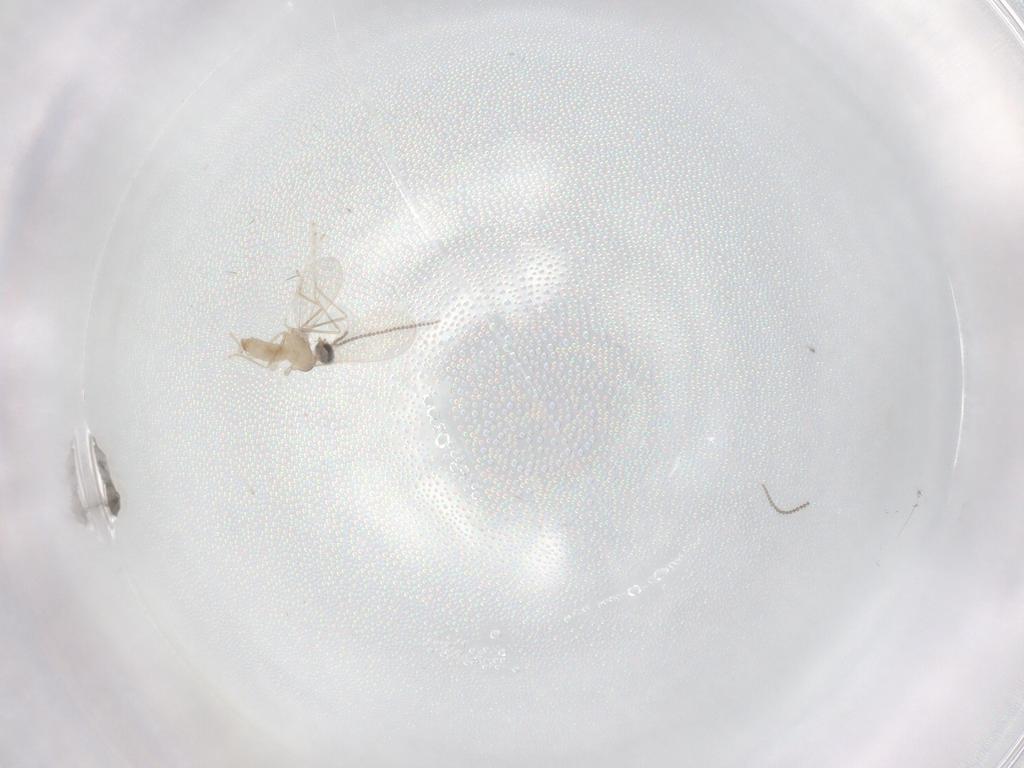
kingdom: Animalia
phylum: Arthropoda
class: Insecta
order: Diptera
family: Cecidomyiidae
